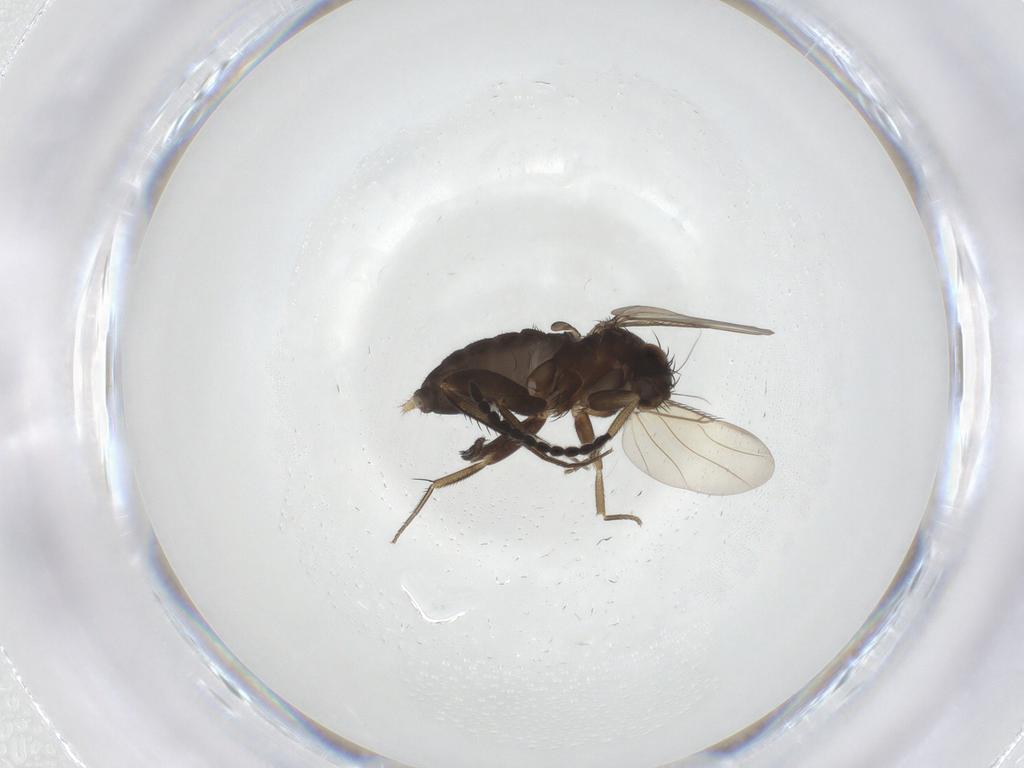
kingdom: Animalia
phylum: Arthropoda
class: Insecta
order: Diptera
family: Phoridae
